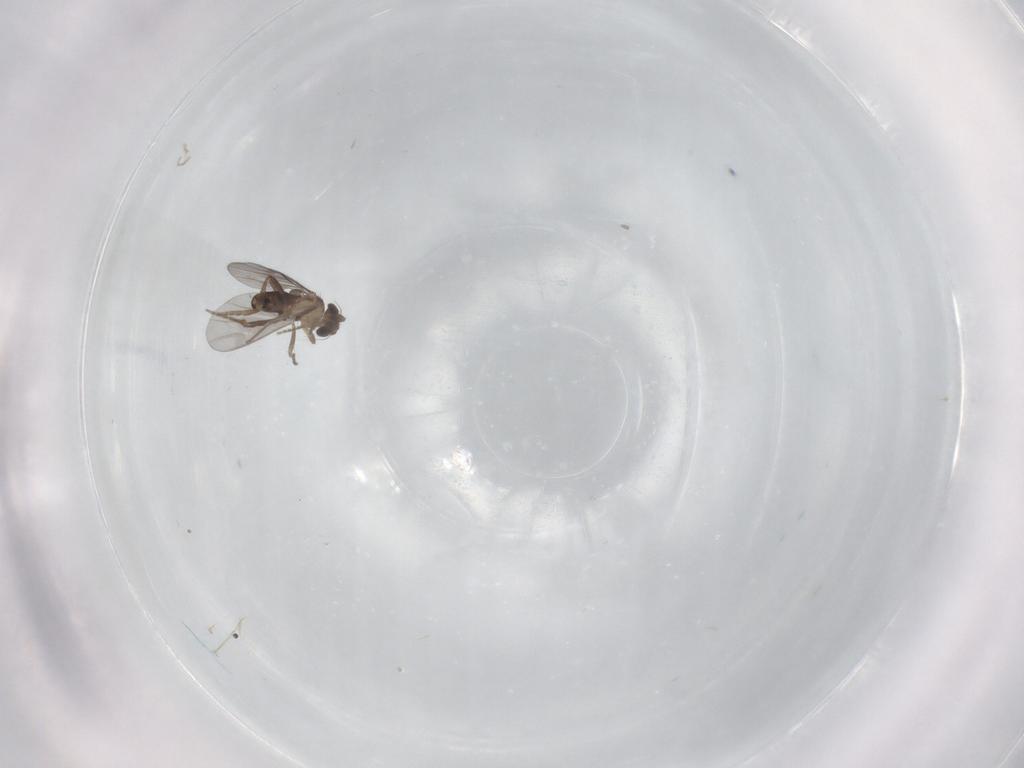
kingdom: Animalia
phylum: Arthropoda
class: Insecta
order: Diptera
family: Phoridae
